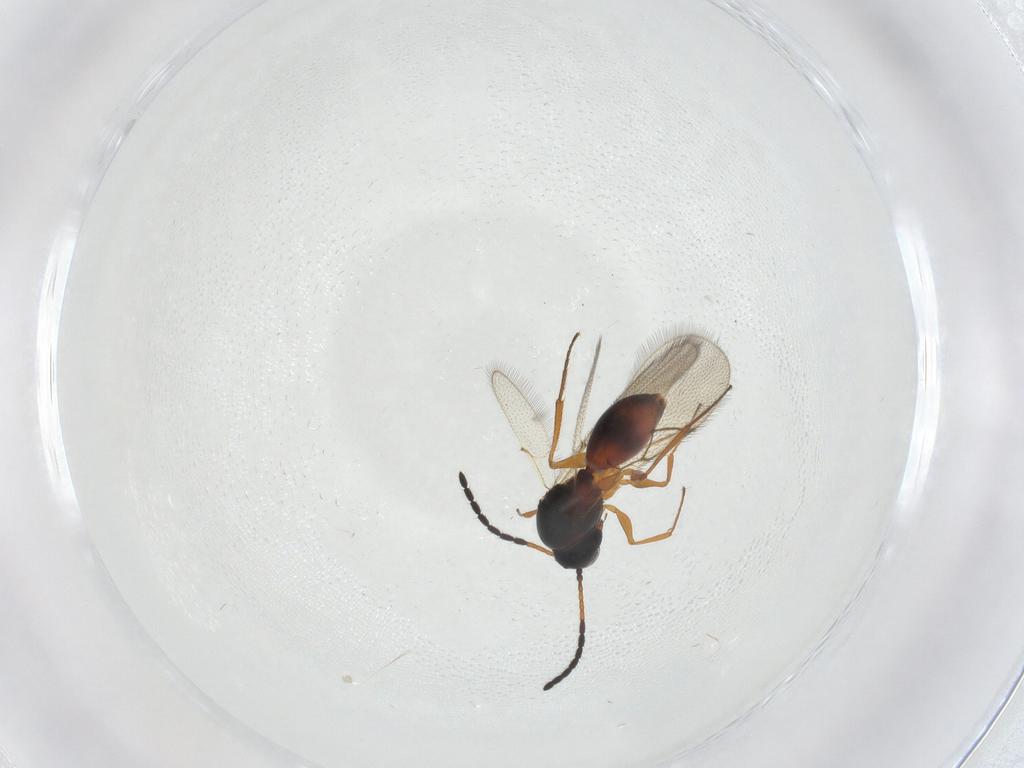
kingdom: Animalia
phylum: Arthropoda
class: Insecta
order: Hymenoptera
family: Figitidae
